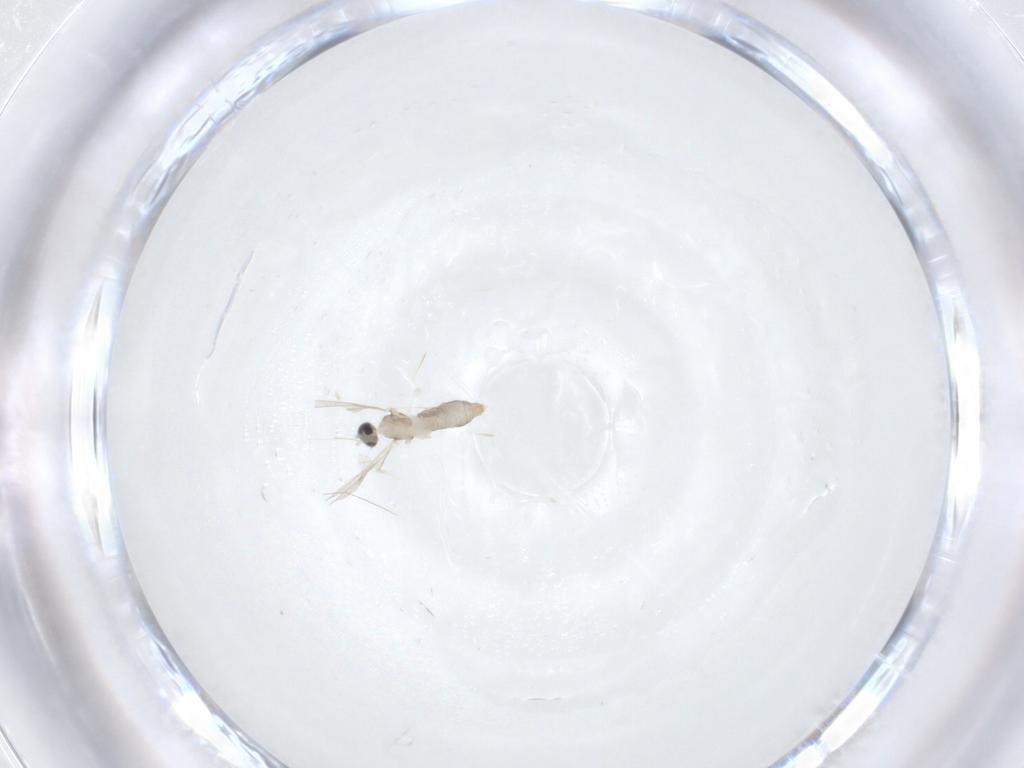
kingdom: Animalia
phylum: Arthropoda
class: Insecta
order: Diptera
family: Cecidomyiidae
